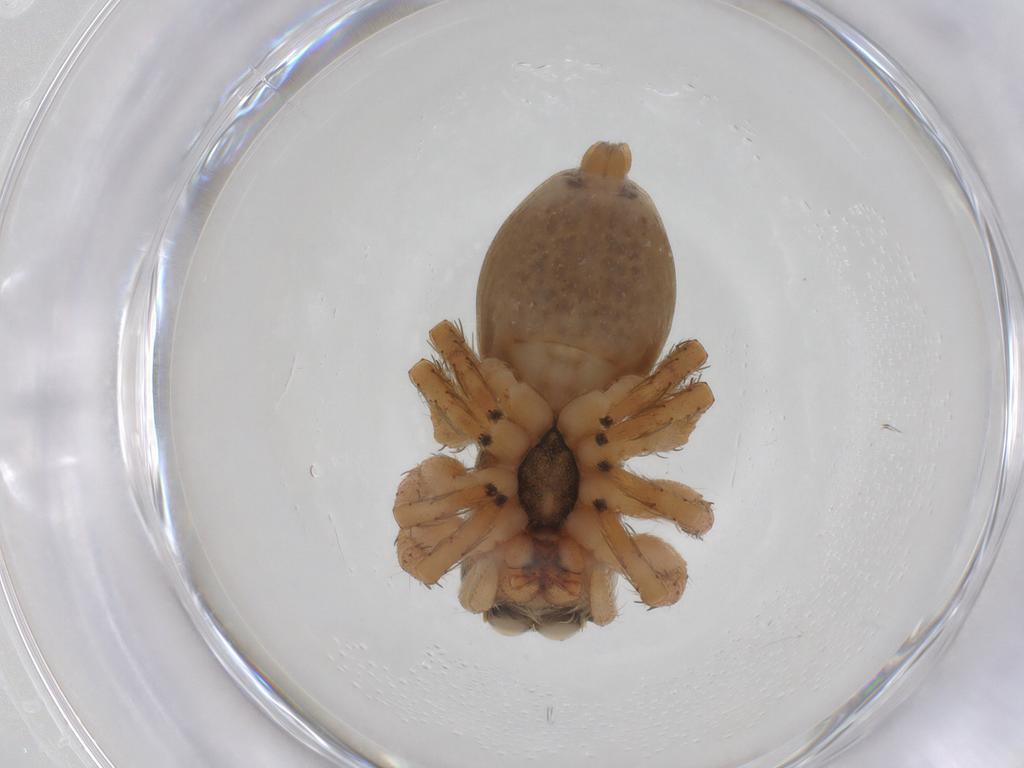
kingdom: Animalia
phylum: Arthropoda
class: Arachnida
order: Araneae
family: Salticidae
